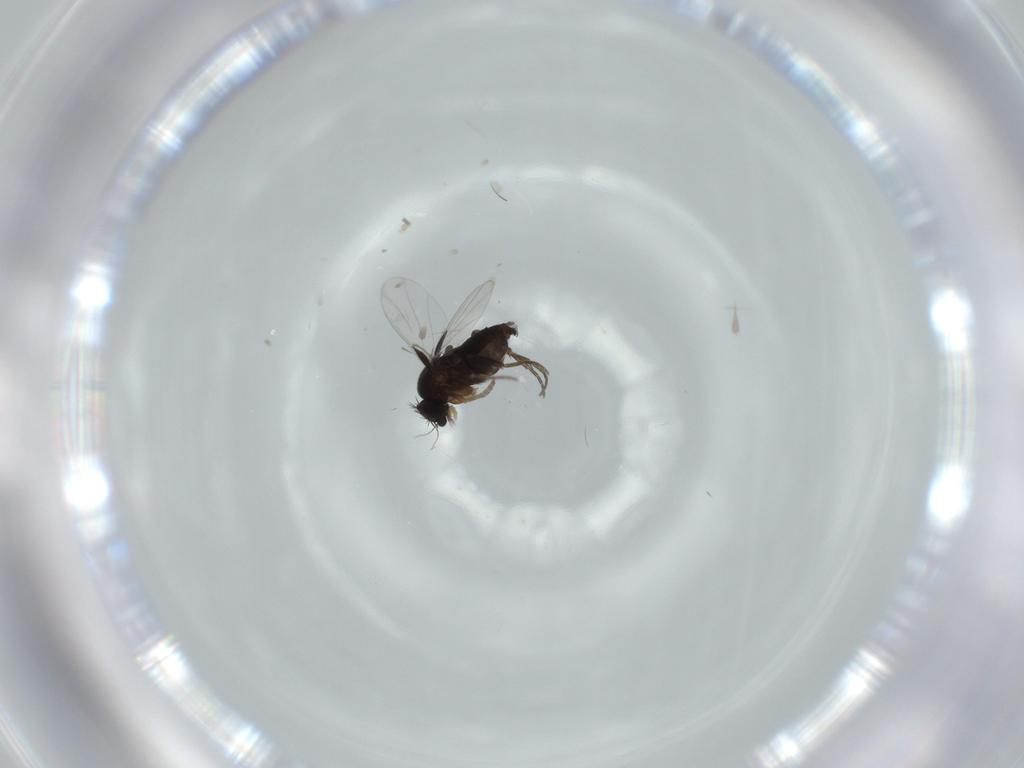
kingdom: Animalia
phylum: Arthropoda
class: Insecta
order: Diptera
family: Phoridae
